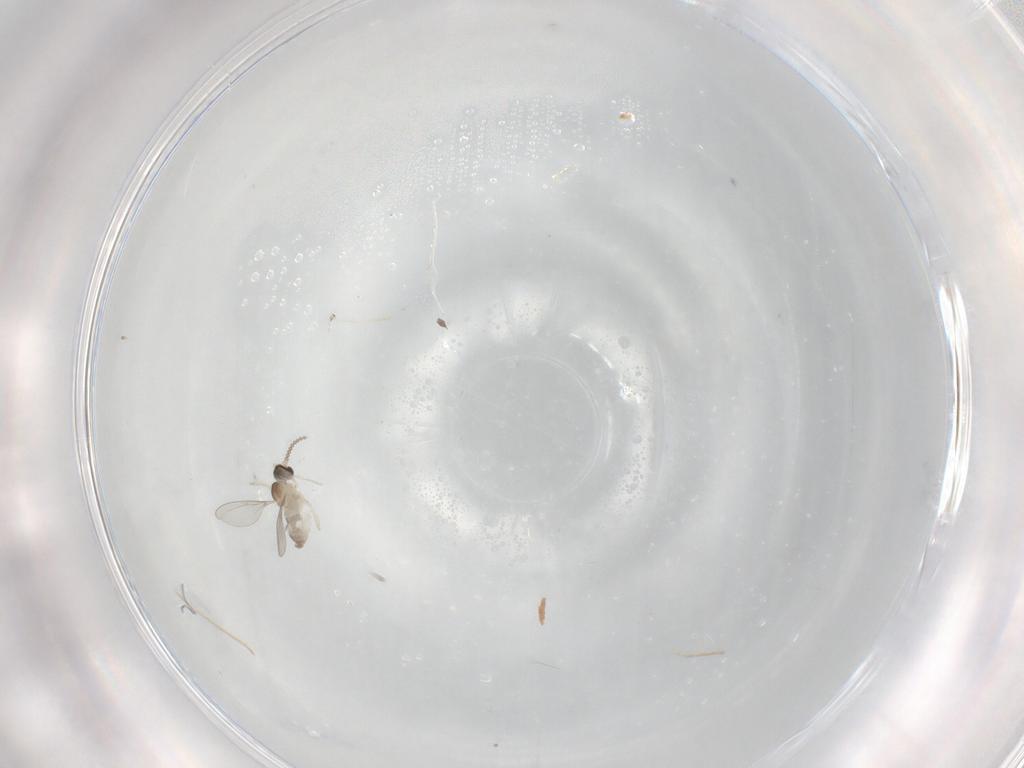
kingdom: Animalia
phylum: Arthropoda
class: Insecta
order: Diptera
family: Cecidomyiidae
